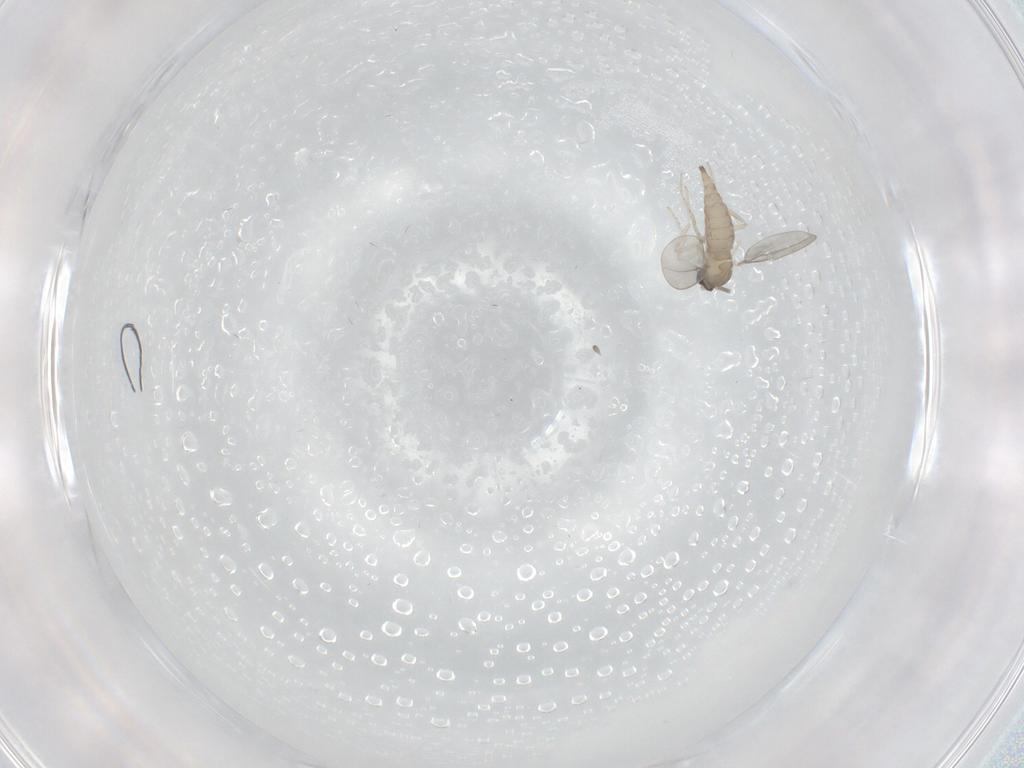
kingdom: Animalia
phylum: Arthropoda
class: Insecta
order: Diptera
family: Cecidomyiidae
